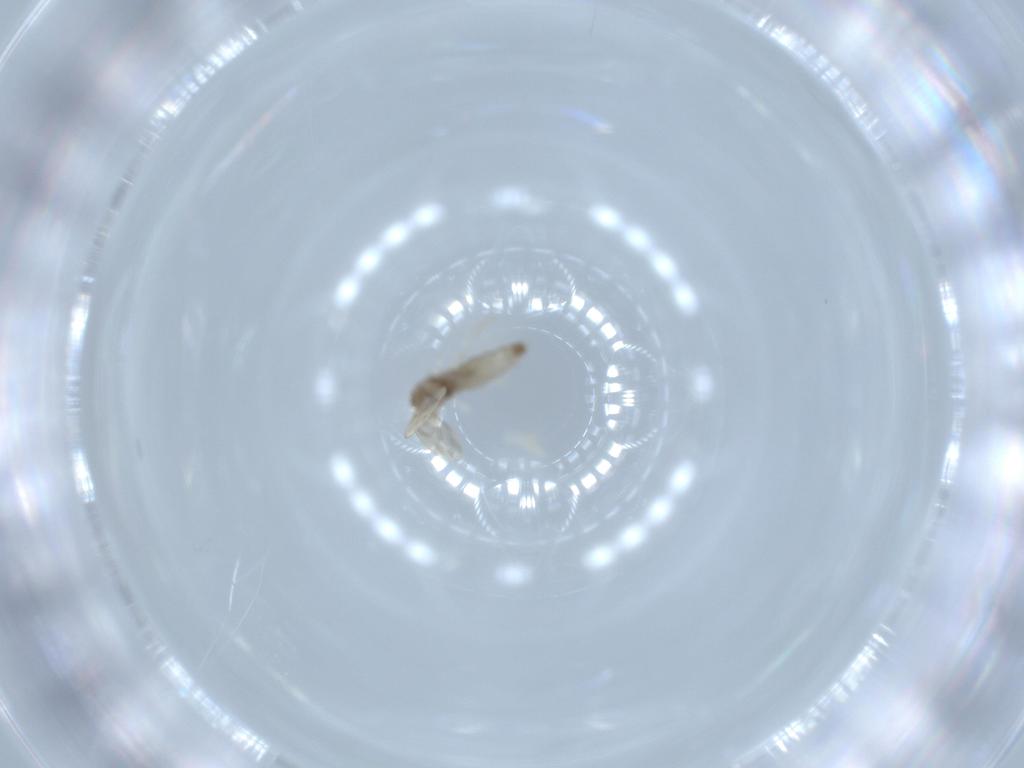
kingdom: Animalia
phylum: Arthropoda
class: Insecta
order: Diptera
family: Cecidomyiidae
